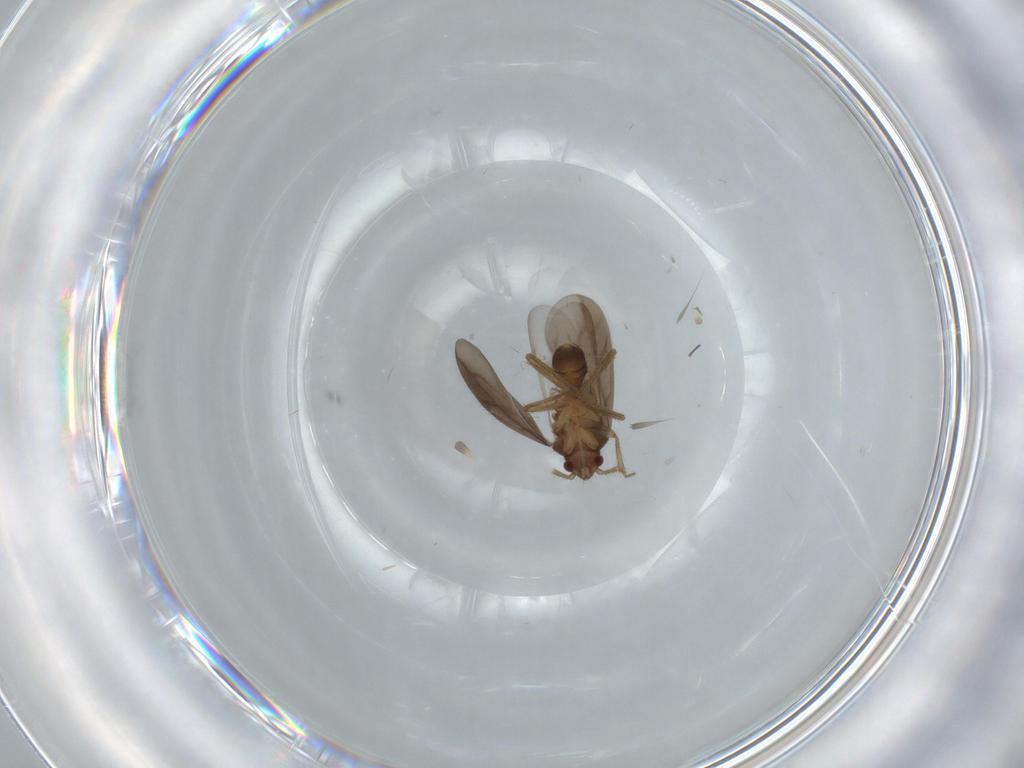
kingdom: Animalia
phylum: Arthropoda
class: Insecta
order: Hemiptera
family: Ceratocombidae
